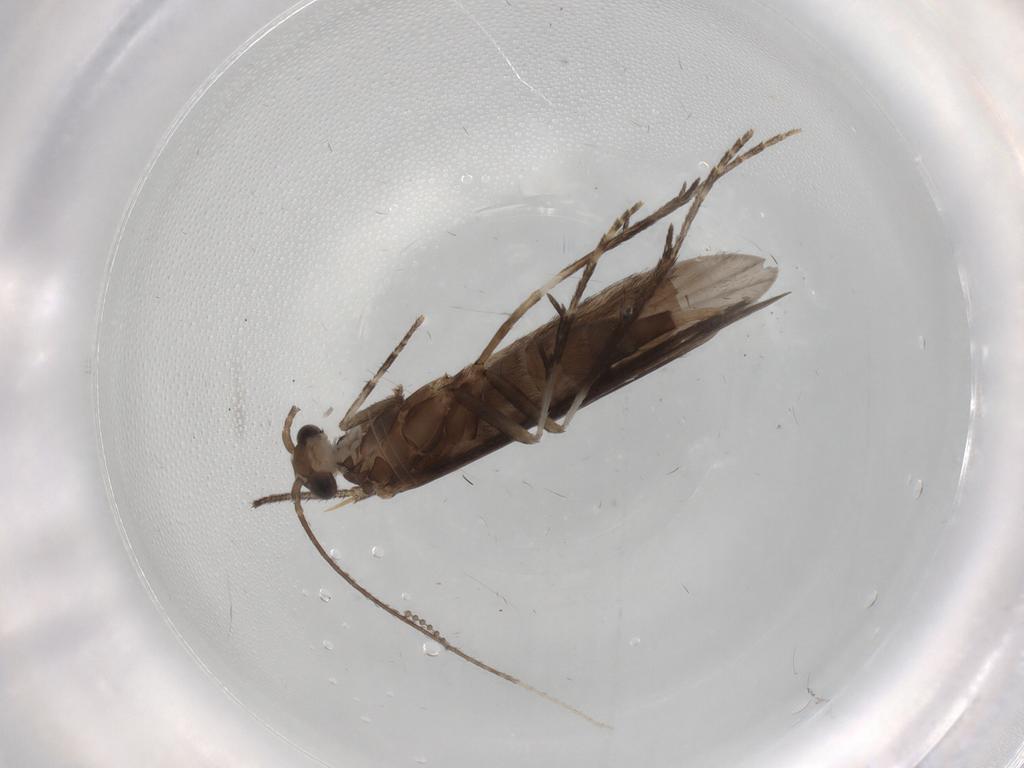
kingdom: Animalia
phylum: Arthropoda
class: Insecta
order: Trichoptera
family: Xiphocentronidae
